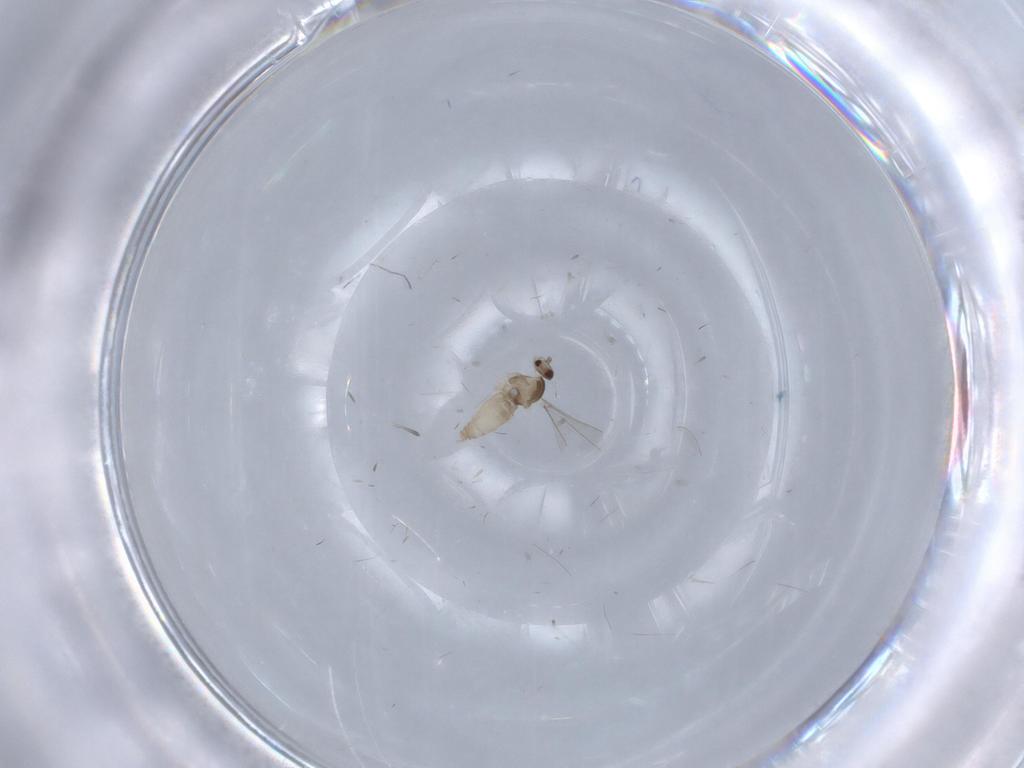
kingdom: Animalia
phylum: Arthropoda
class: Insecta
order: Diptera
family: Cecidomyiidae
